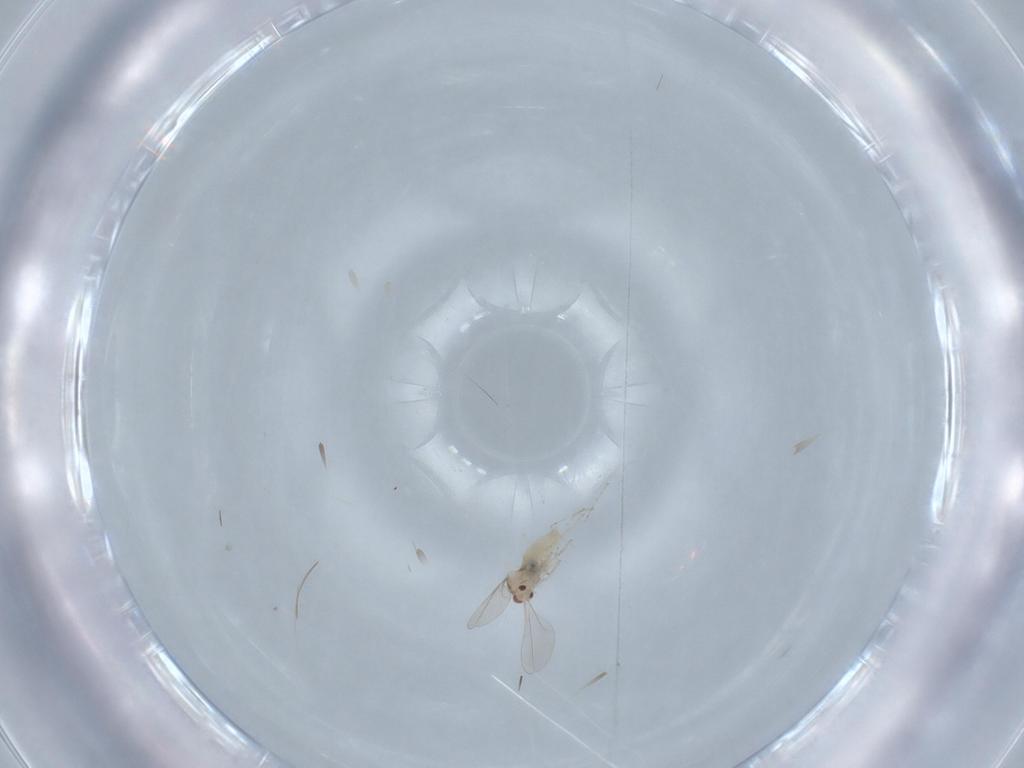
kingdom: Animalia
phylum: Arthropoda
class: Insecta
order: Diptera
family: Cecidomyiidae
